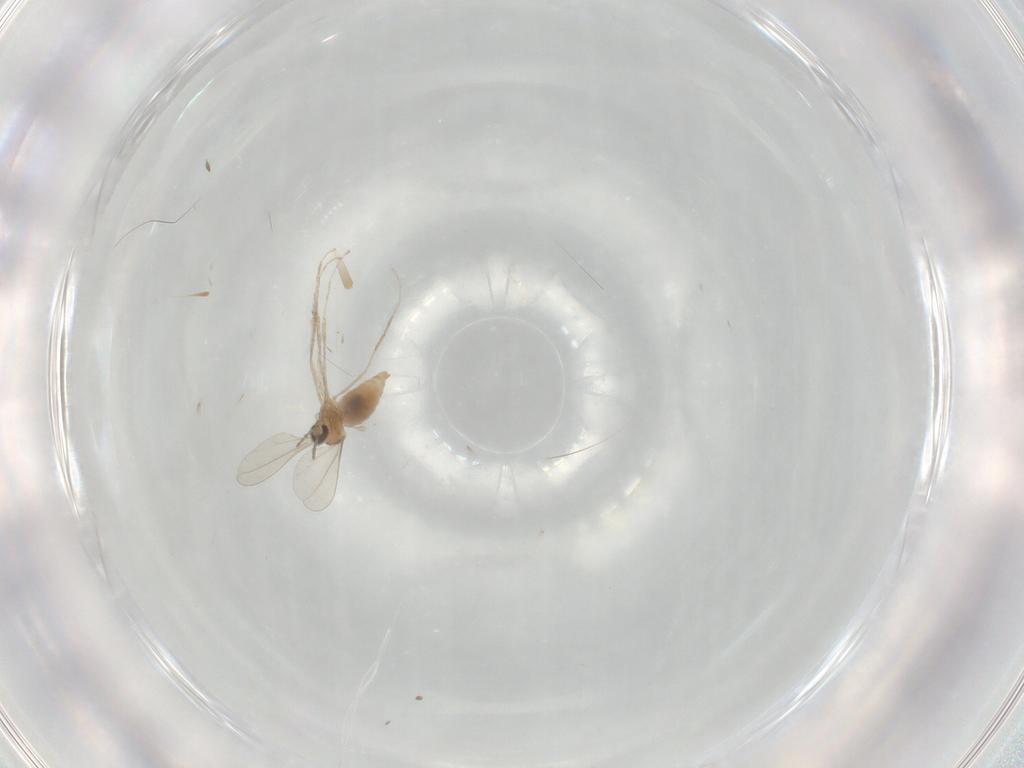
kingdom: Animalia
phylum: Arthropoda
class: Insecta
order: Diptera
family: Cecidomyiidae
